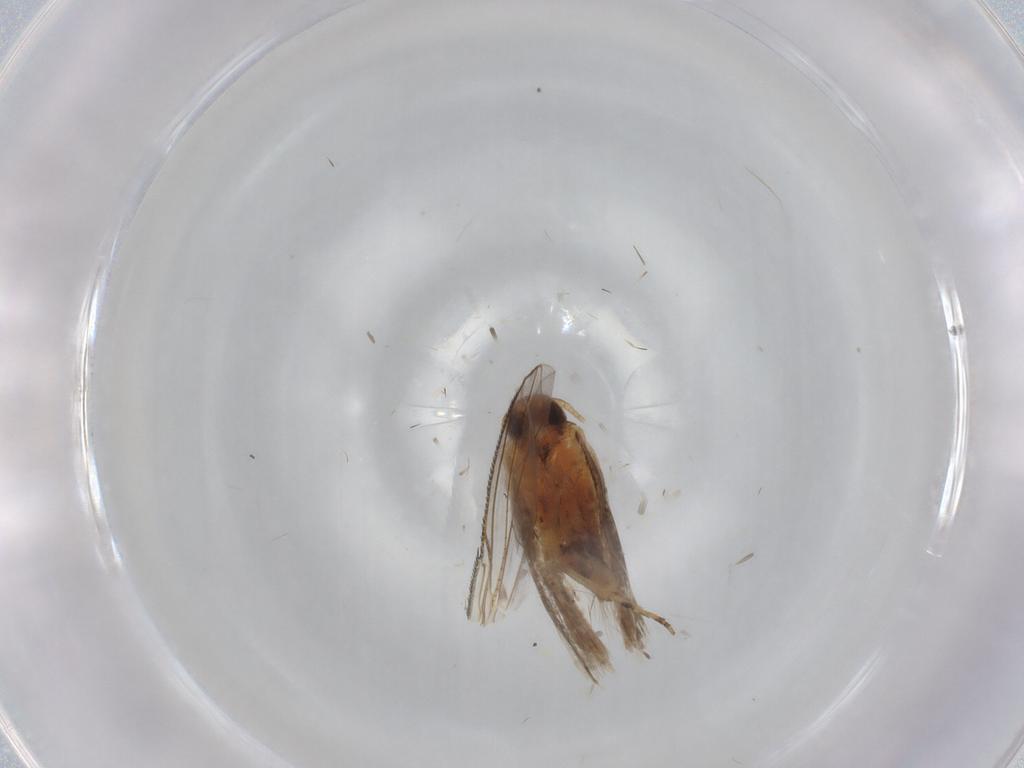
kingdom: Animalia
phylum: Arthropoda
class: Insecta
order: Lepidoptera
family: Gelechiidae
